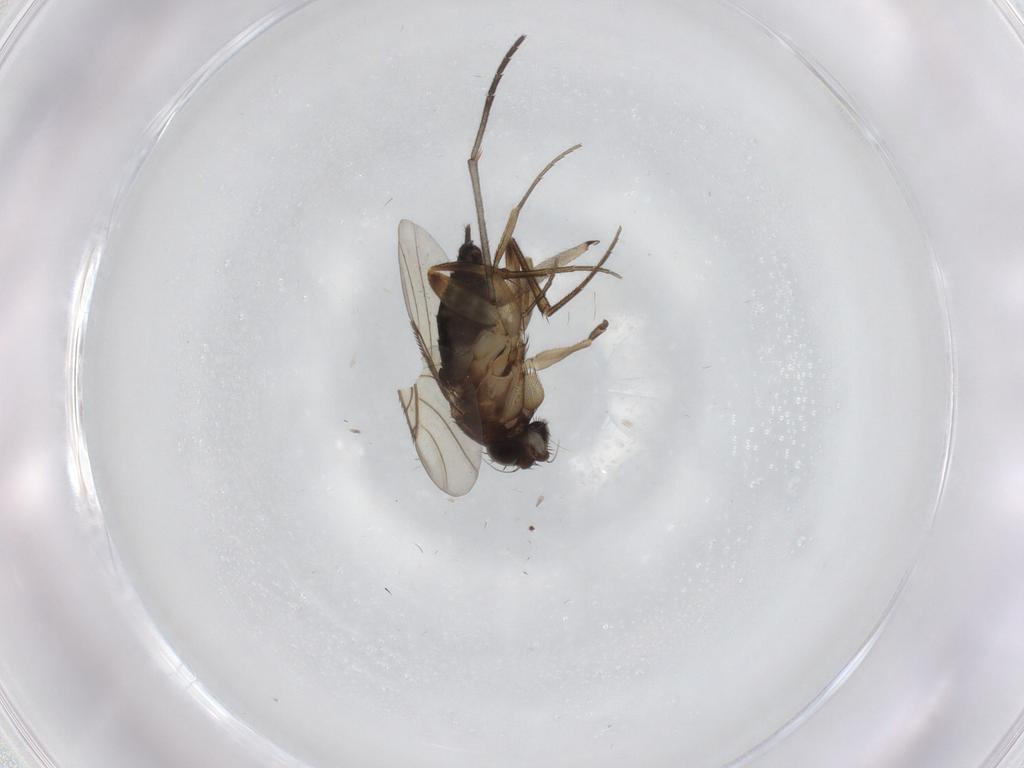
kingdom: Animalia
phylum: Arthropoda
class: Insecta
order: Diptera
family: Sciaridae
